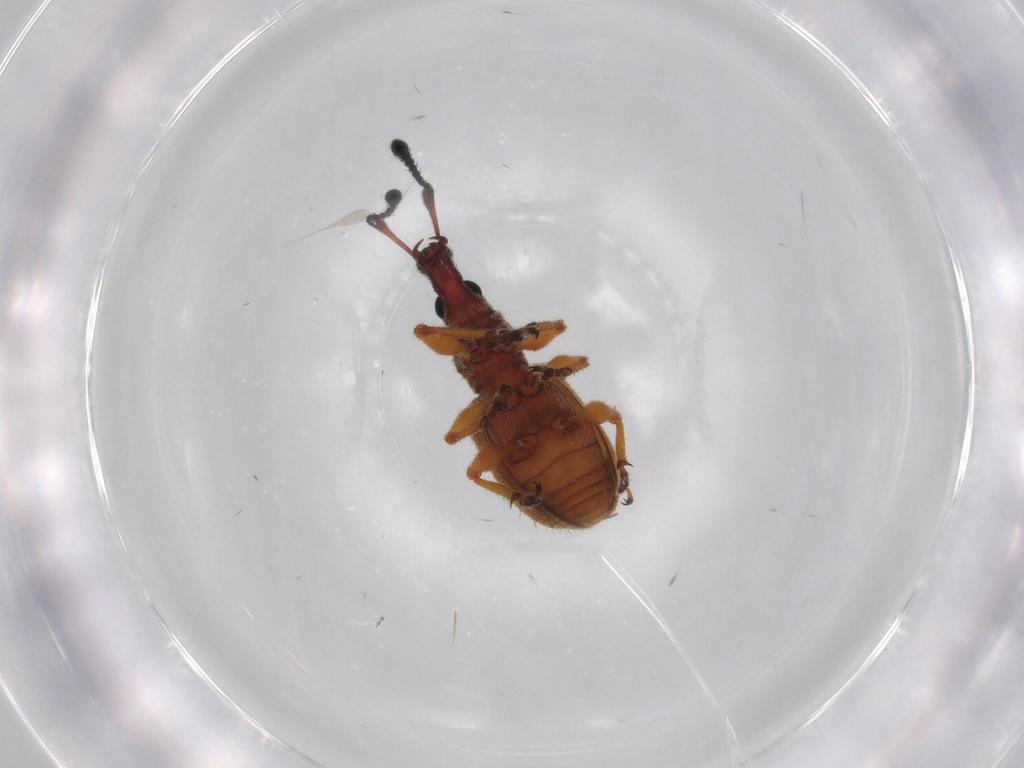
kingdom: Animalia
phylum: Arthropoda
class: Insecta
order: Coleoptera
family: Curculionidae
